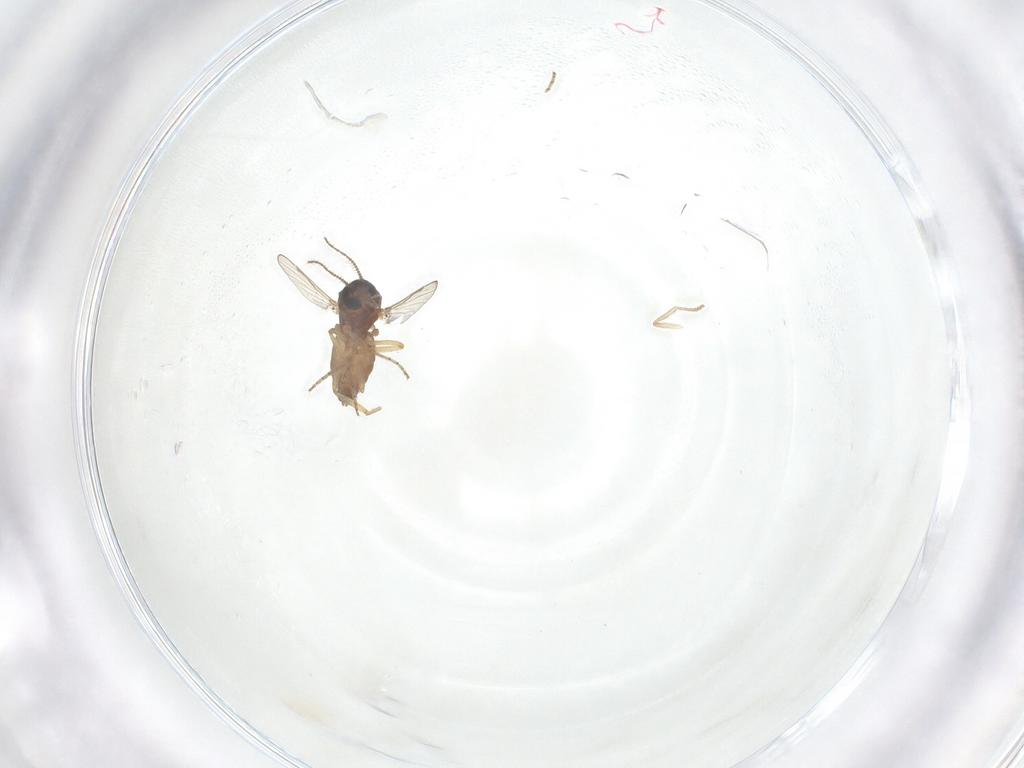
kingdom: Animalia
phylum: Arthropoda
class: Insecta
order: Diptera
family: Ceratopogonidae
